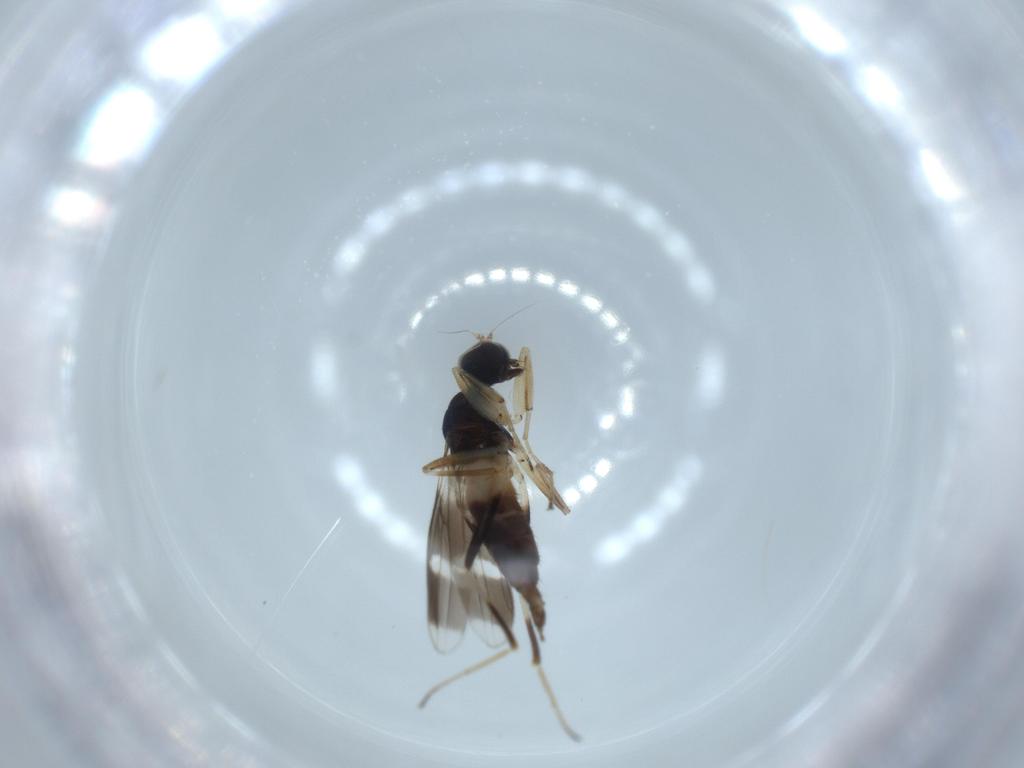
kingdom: Animalia
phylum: Arthropoda
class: Insecta
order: Diptera
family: Hybotidae
